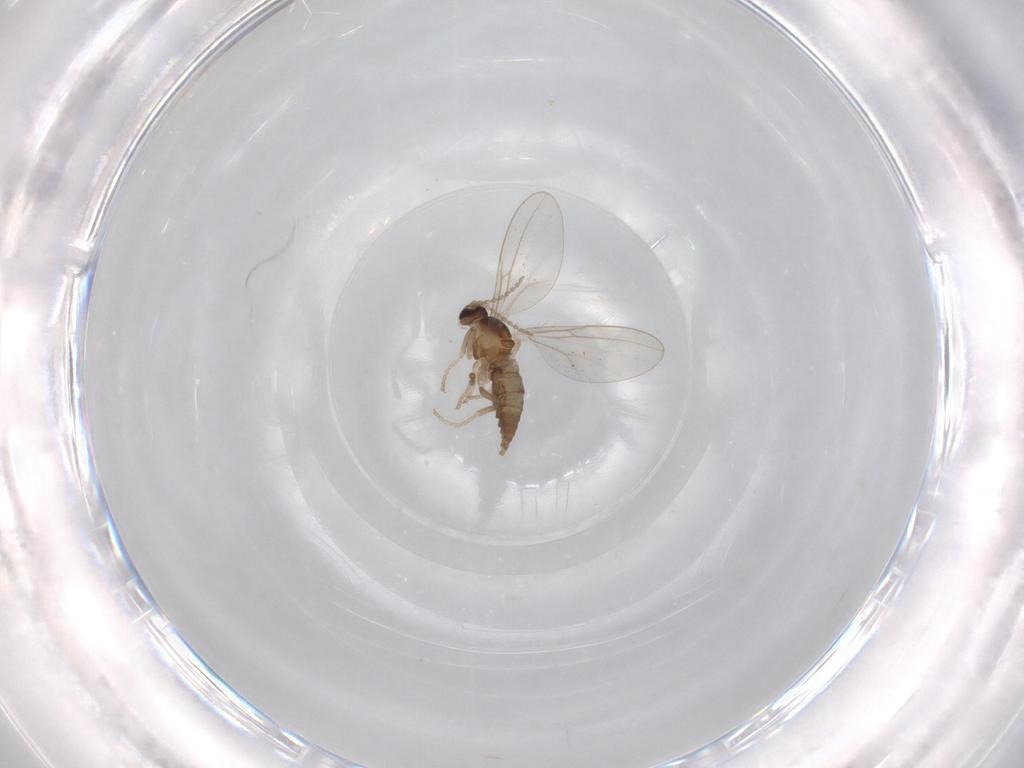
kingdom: Animalia
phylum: Arthropoda
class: Insecta
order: Diptera
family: Cecidomyiidae
